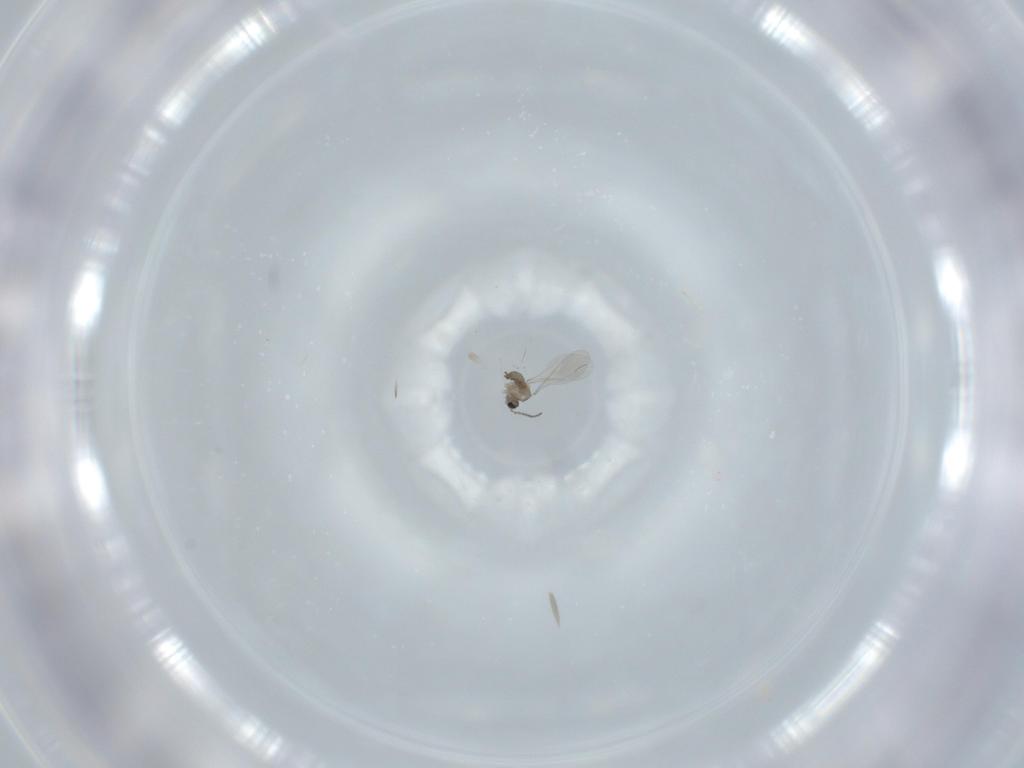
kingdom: Animalia
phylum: Arthropoda
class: Insecta
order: Diptera
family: Cecidomyiidae
